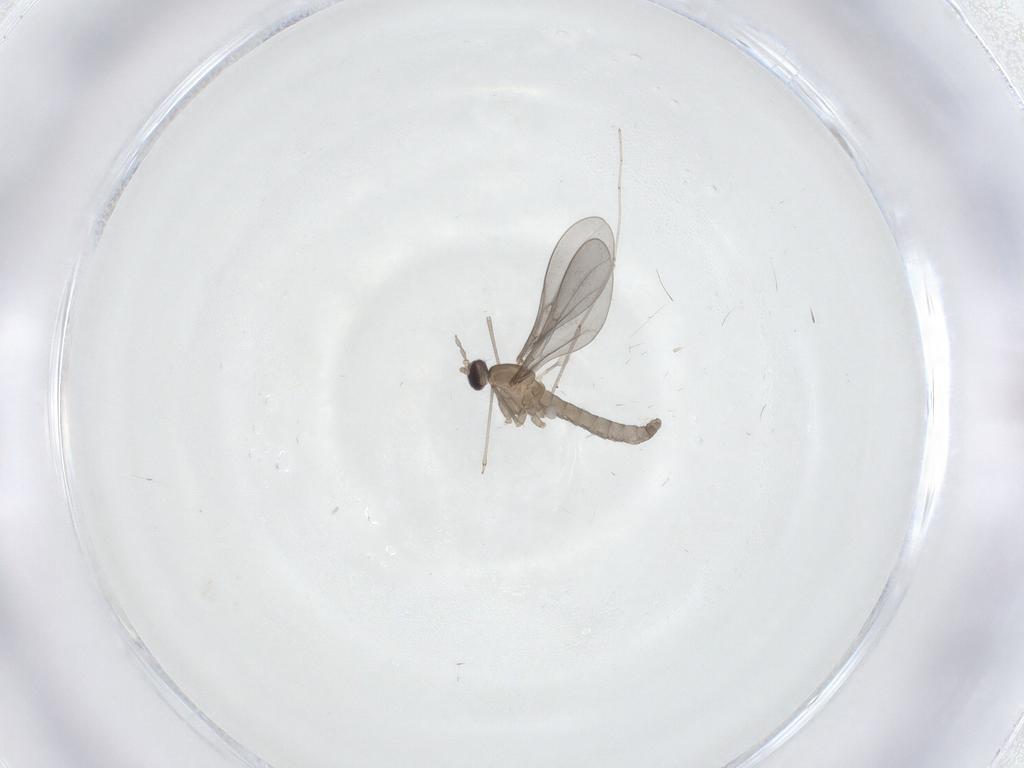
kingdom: Animalia
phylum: Arthropoda
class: Insecta
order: Diptera
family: Cecidomyiidae
